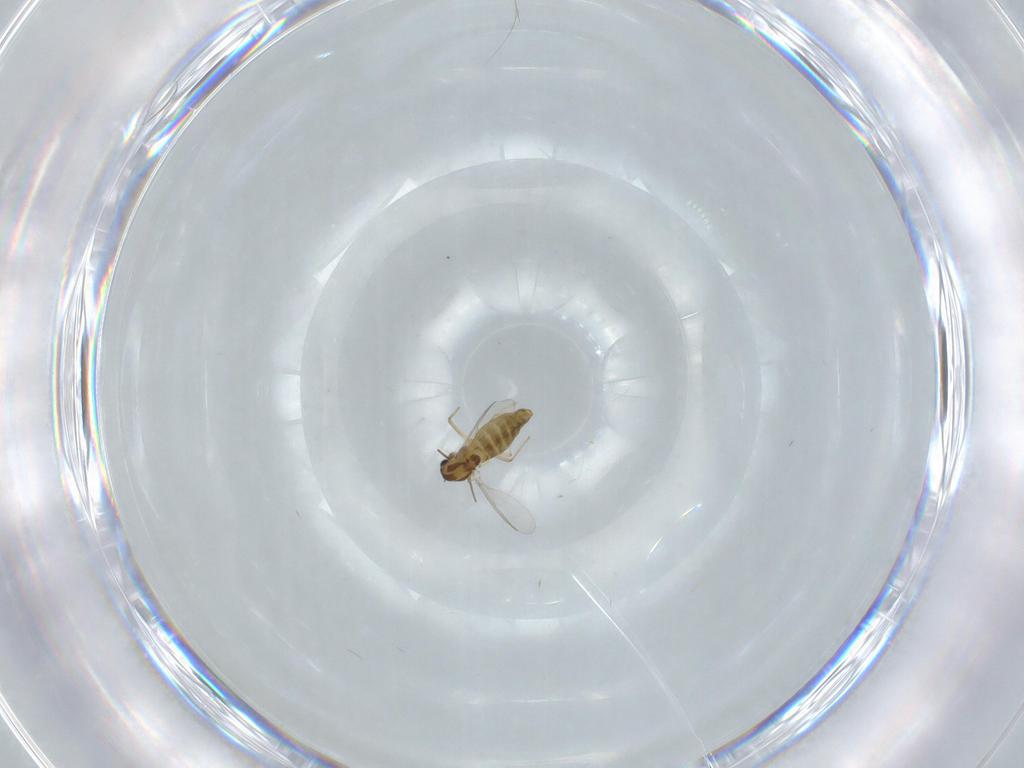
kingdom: Animalia
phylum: Arthropoda
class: Insecta
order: Diptera
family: Chironomidae
